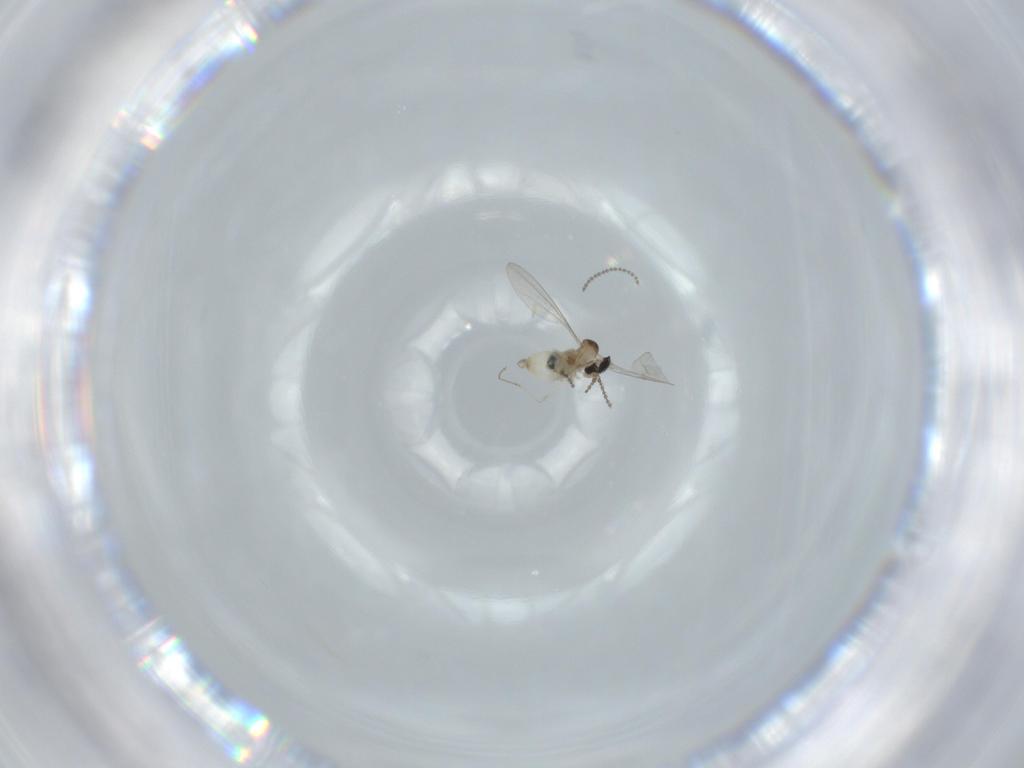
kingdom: Animalia
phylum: Arthropoda
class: Insecta
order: Diptera
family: Cecidomyiidae
